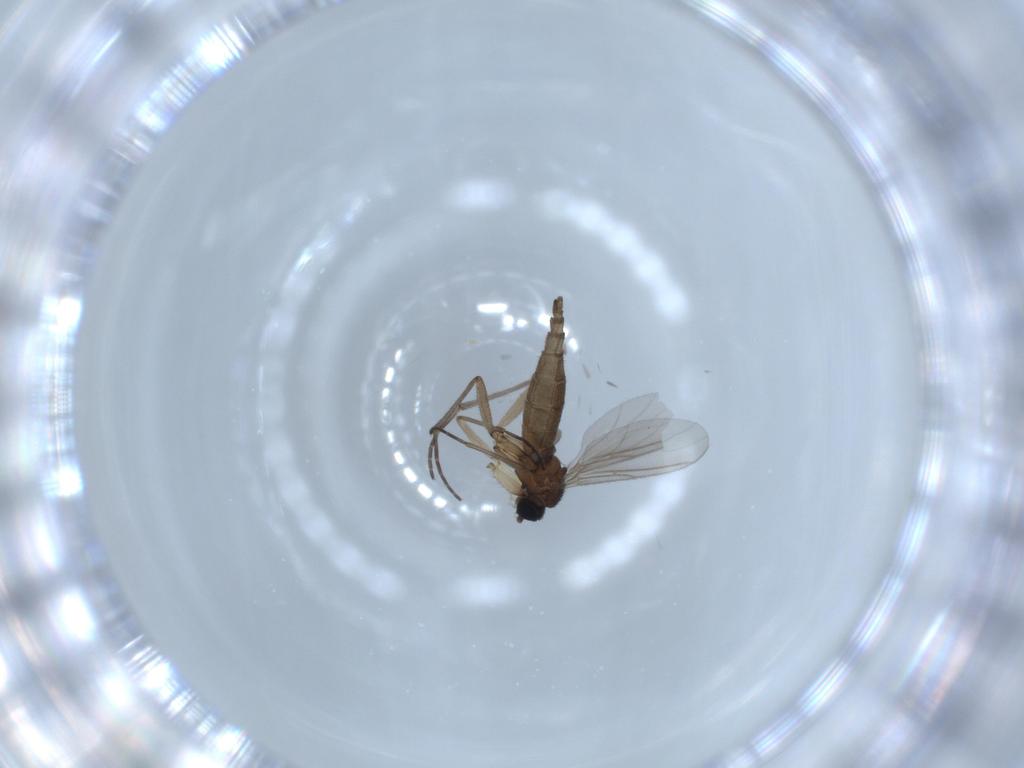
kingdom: Animalia
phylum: Arthropoda
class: Insecta
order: Diptera
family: Sciaridae
